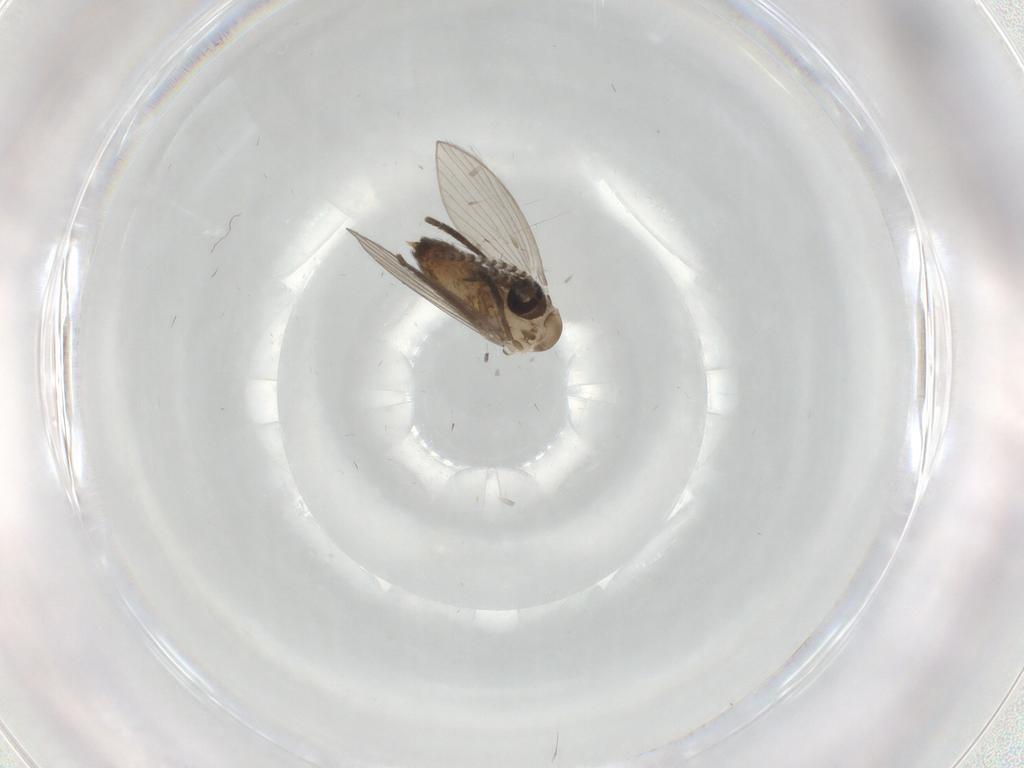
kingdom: Animalia
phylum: Arthropoda
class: Insecta
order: Diptera
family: Psychodidae
